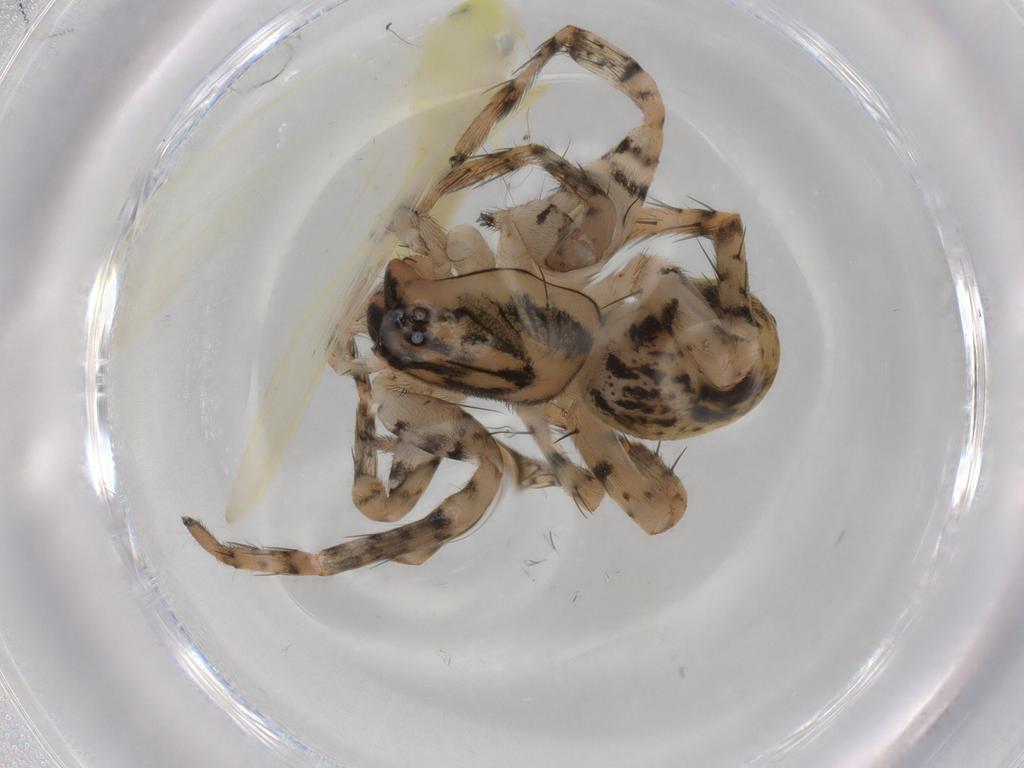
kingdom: Animalia
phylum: Arthropoda
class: Insecta
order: Hemiptera
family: Cicadellidae
